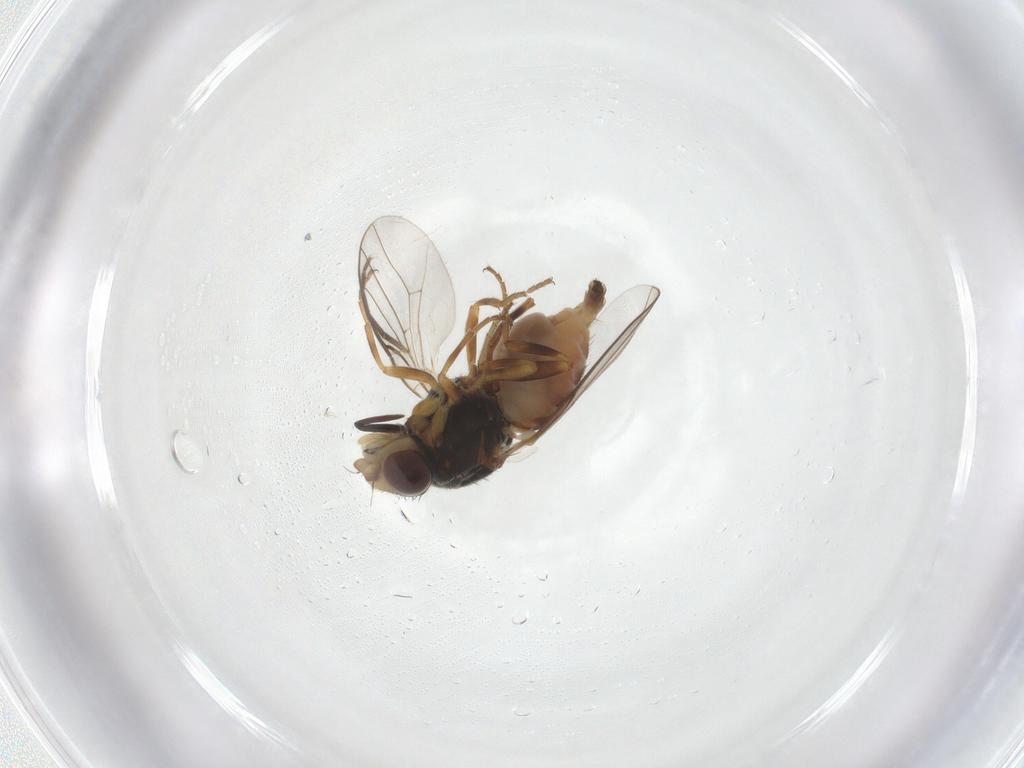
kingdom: Animalia
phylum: Arthropoda
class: Insecta
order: Diptera
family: Chloropidae
